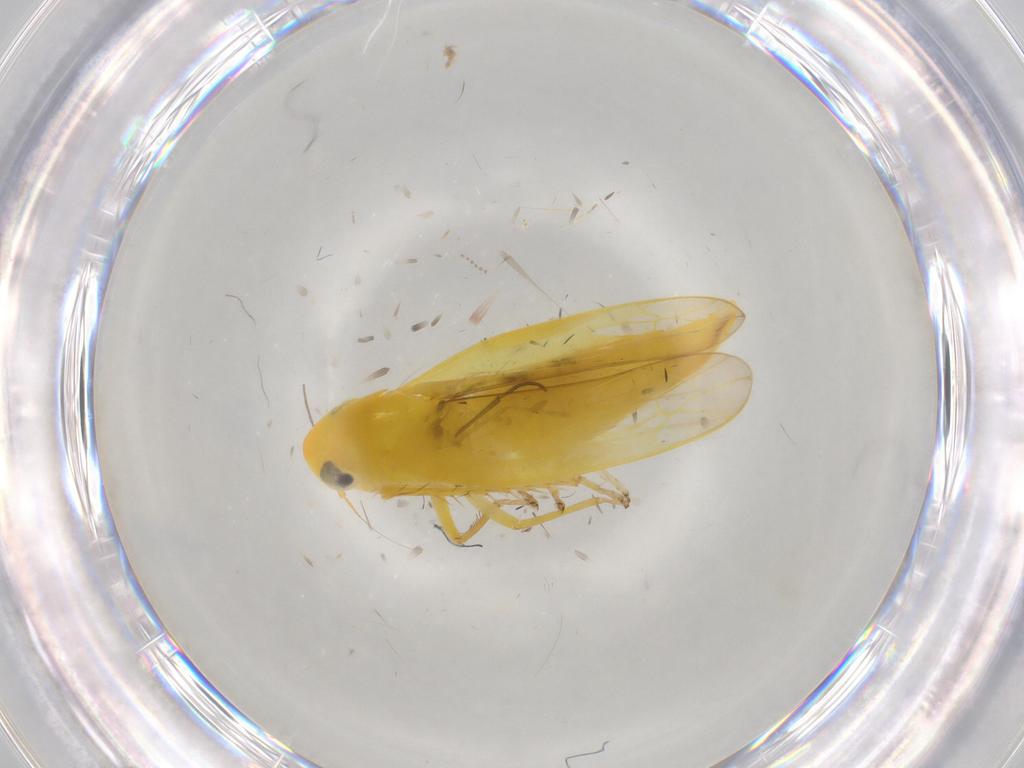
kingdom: Animalia
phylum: Arthropoda
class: Insecta
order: Hemiptera
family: Cicadellidae
